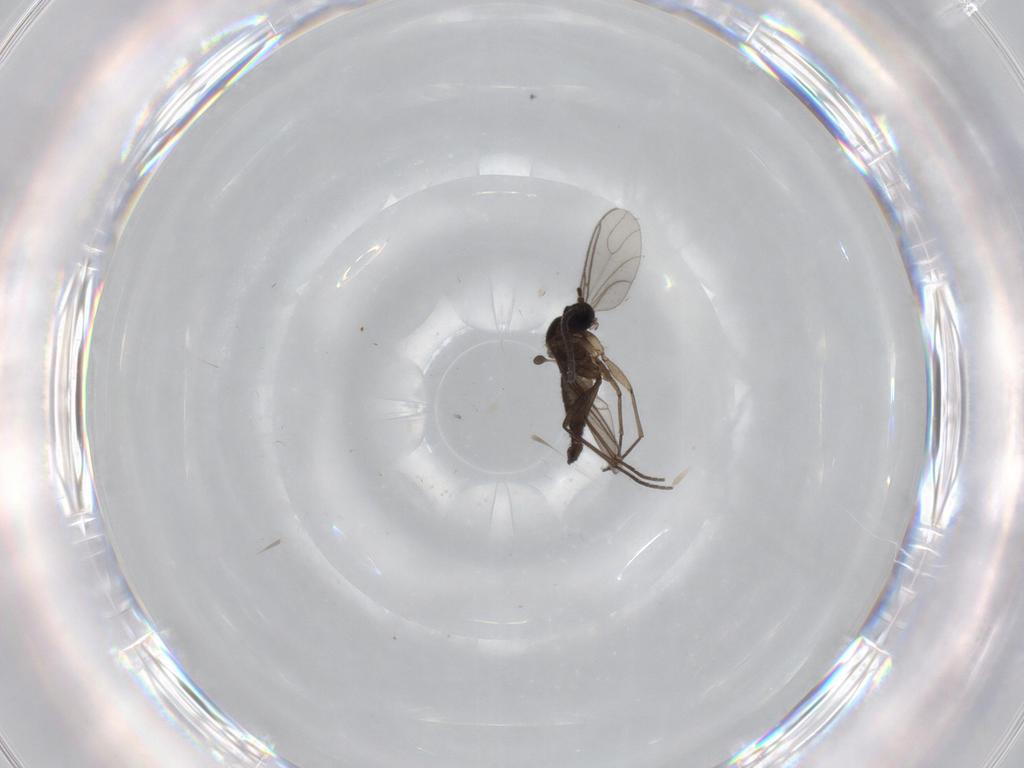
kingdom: Animalia
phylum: Arthropoda
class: Insecta
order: Diptera
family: Sciaridae
